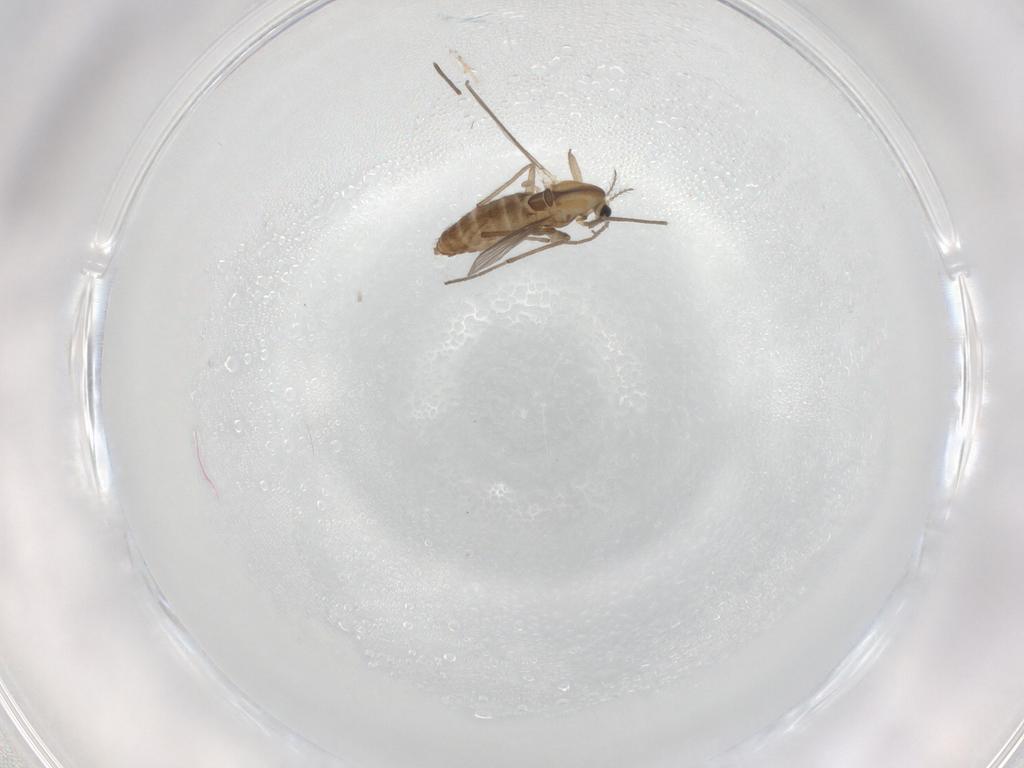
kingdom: Animalia
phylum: Arthropoda
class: Insecta
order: Diptera
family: Chironomidae
